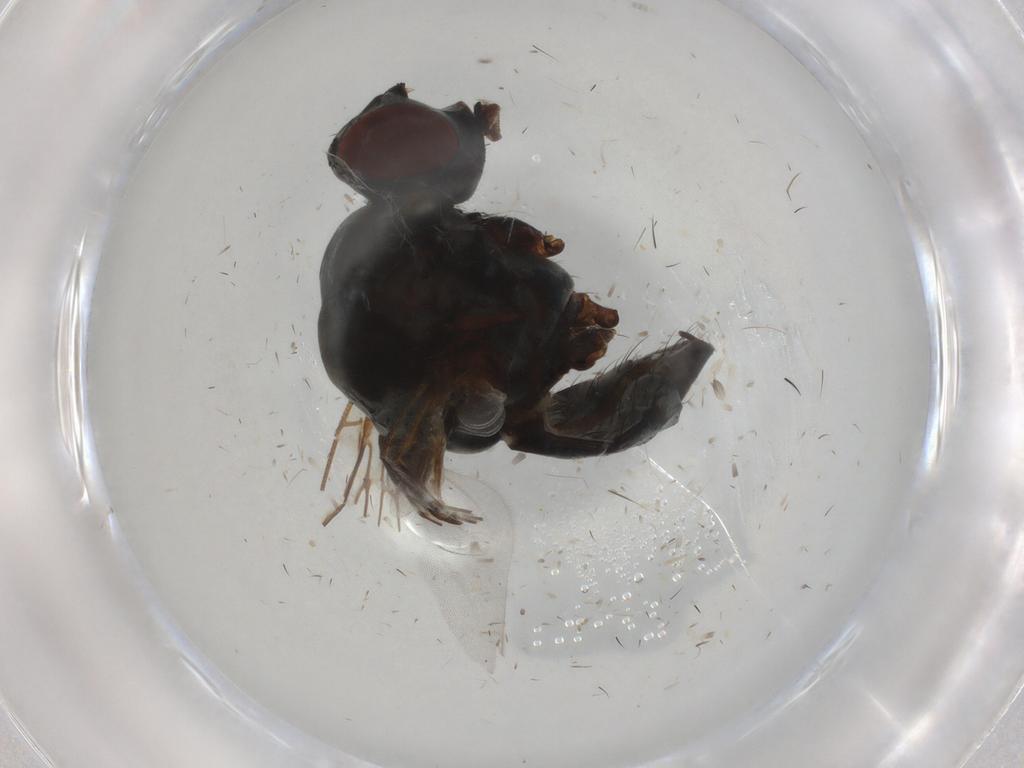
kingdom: Animalia
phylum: Arthropoda
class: Insecta
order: Diptera
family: Anthomyiidae
